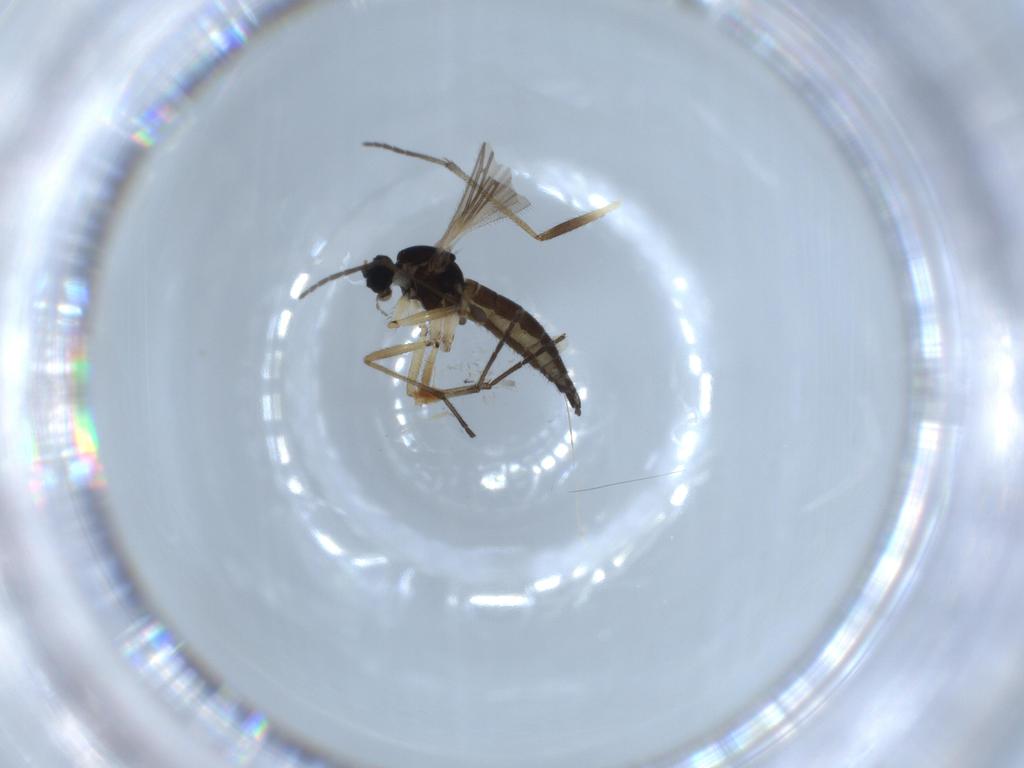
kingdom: Animalia
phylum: Arthropoda
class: Insecta
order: Diptera
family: Sciaridae
